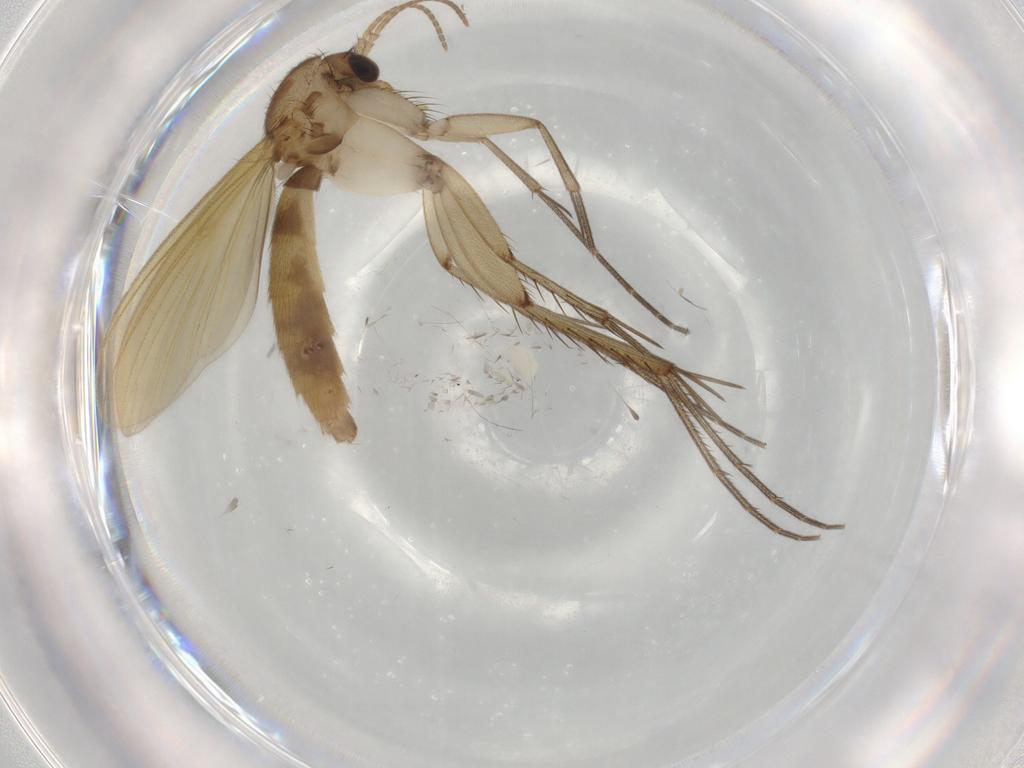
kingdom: Animalia
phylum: Arthropoda
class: Insecta
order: Diptera
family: Mycetophilidae
